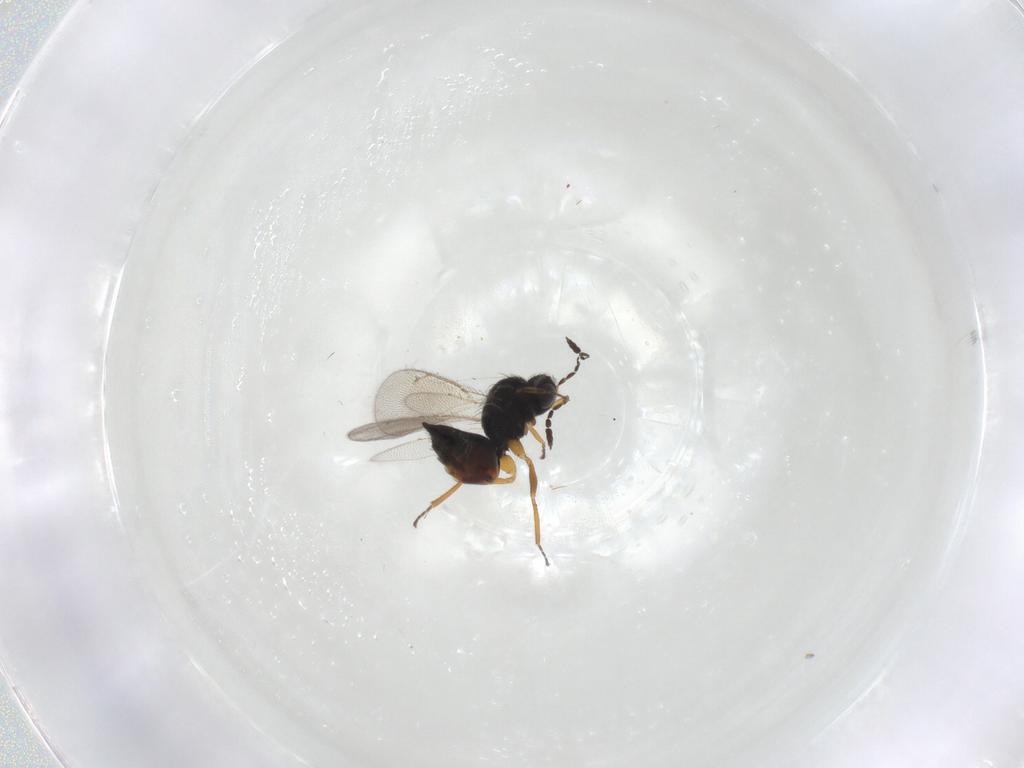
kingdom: Animalia
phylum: Arthropoda
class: Insecta
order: Hymenoptera
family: Eulophidae
